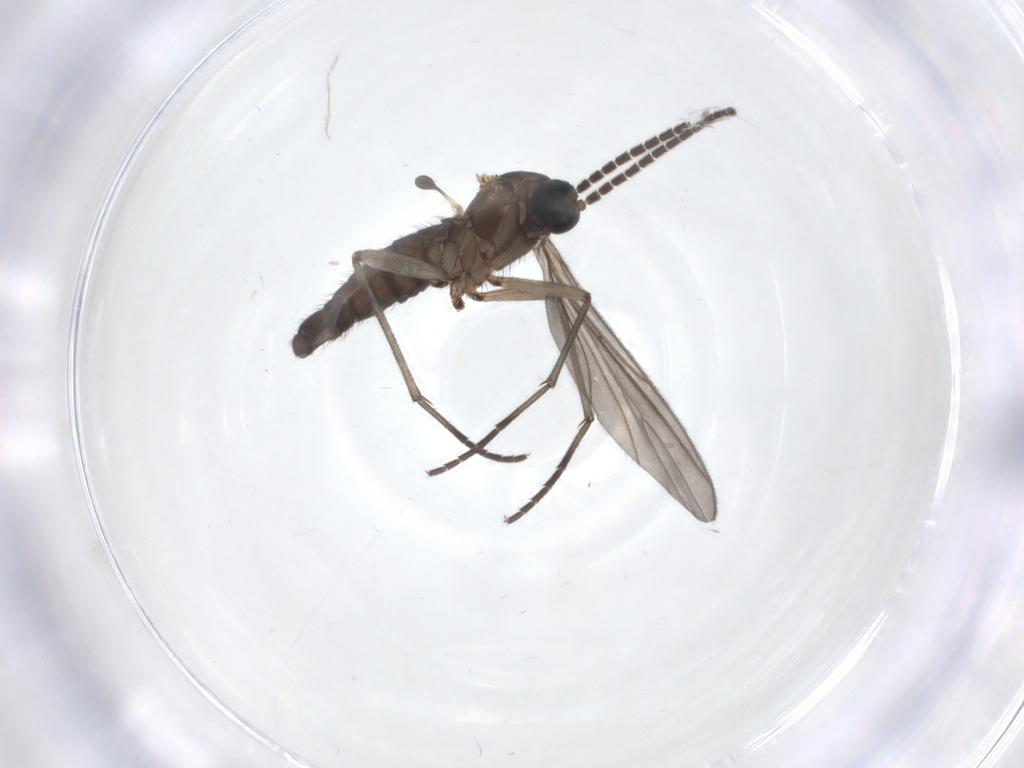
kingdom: Animalia
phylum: Arthropoda
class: Insecta
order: Diptera
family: Sciaridae
